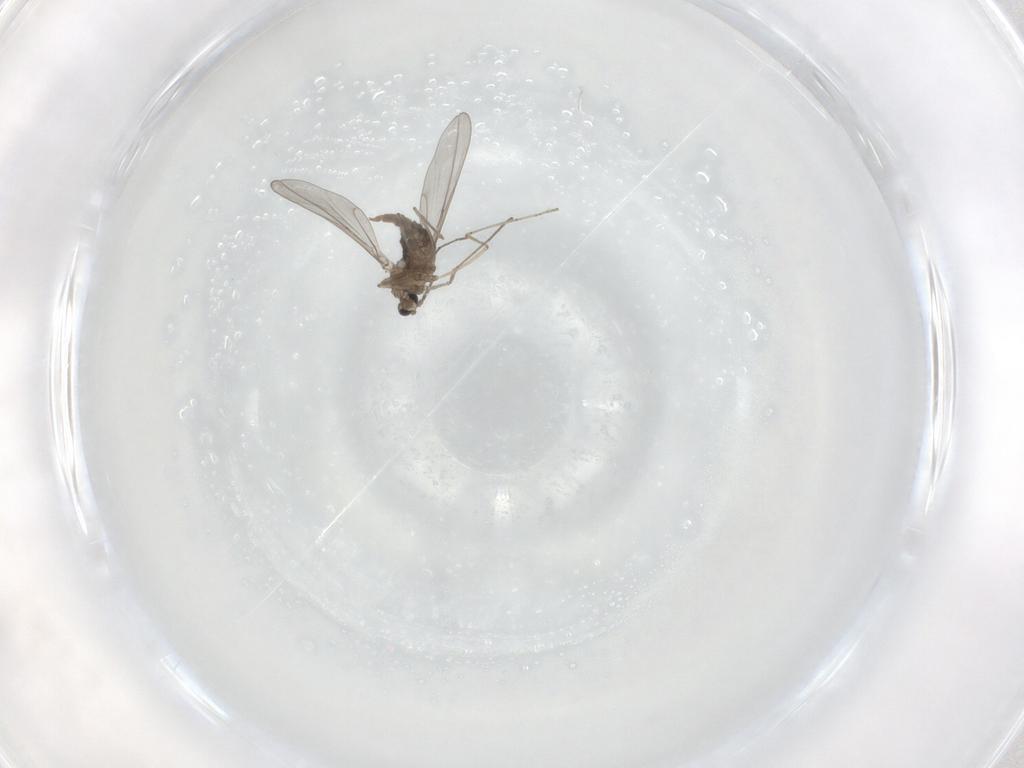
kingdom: Animalia
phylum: Arthropoda
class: Insecta
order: Diptera
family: Cecidomyiidae
